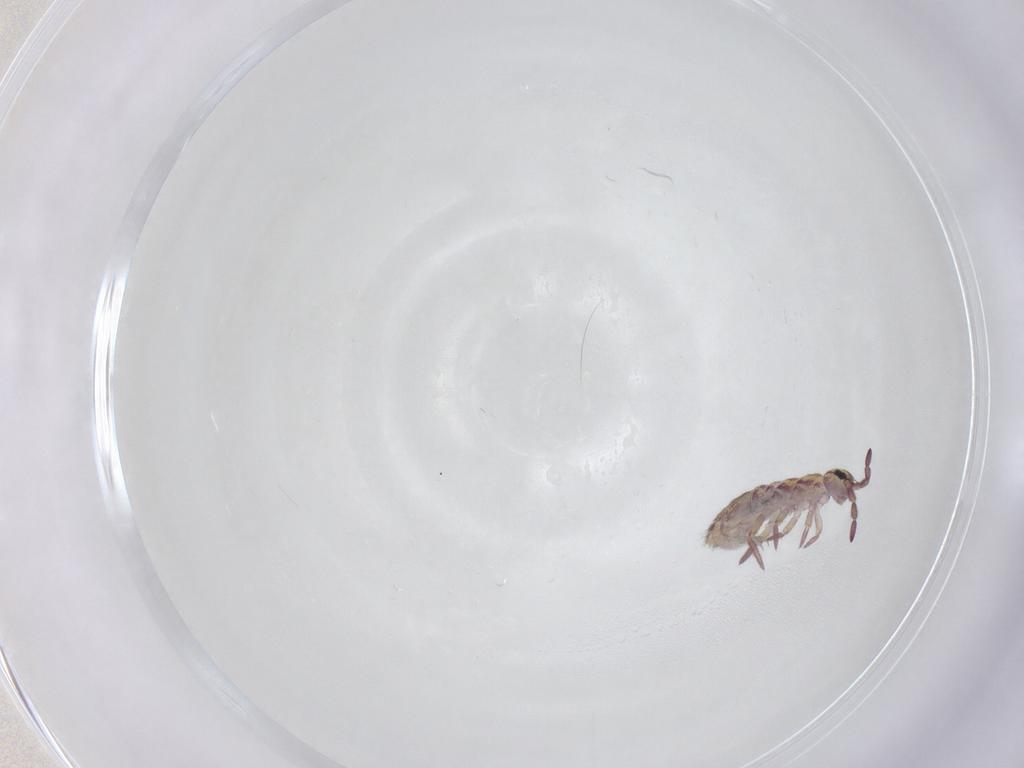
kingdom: Animalia
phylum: Arthropoda
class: Collembola
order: Entomobryomorpha
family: Isotomidae
